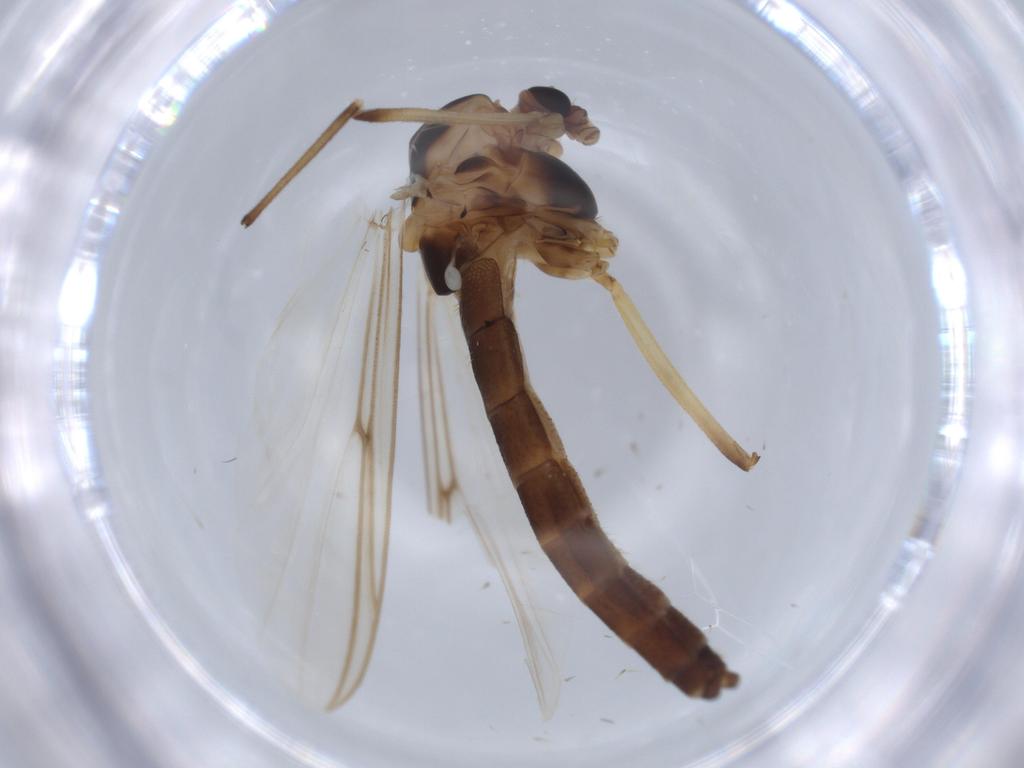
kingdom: Animalia
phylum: Arthropoda
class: Insecta
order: Diptera
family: Chironomidae
